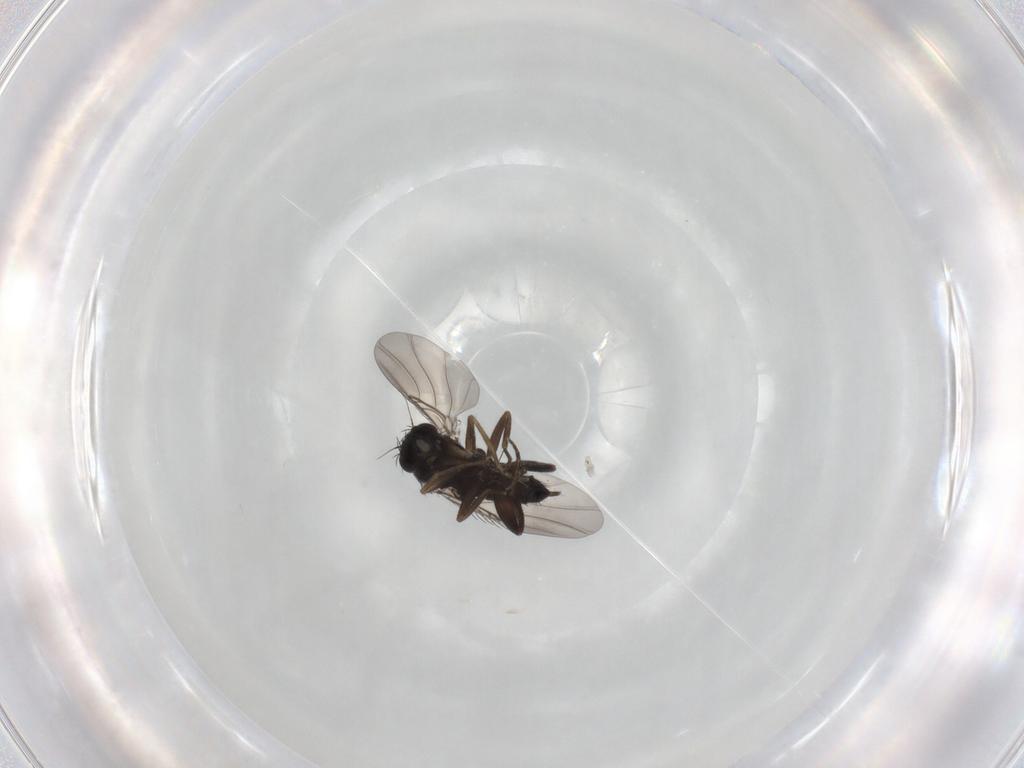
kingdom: Animalia
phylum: Arthropoda
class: Insecta
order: Diptera
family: Phoridae
